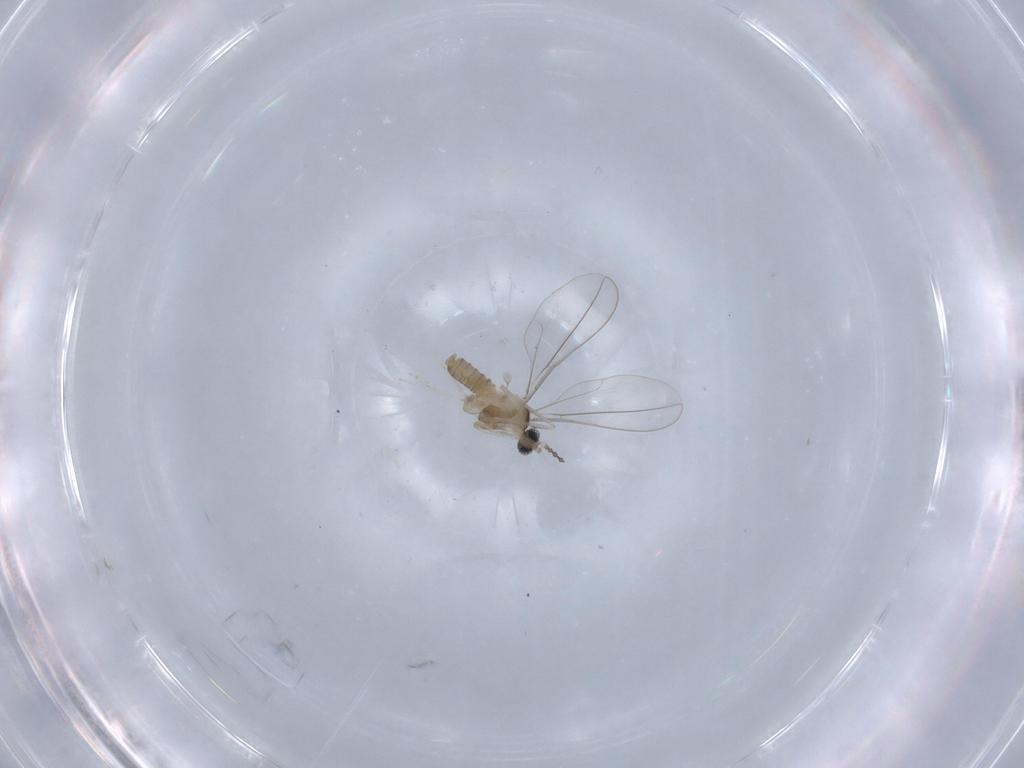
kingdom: Animalia
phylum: Arthropoda
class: Insecta
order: Diptera
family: Cecidomyiidae
